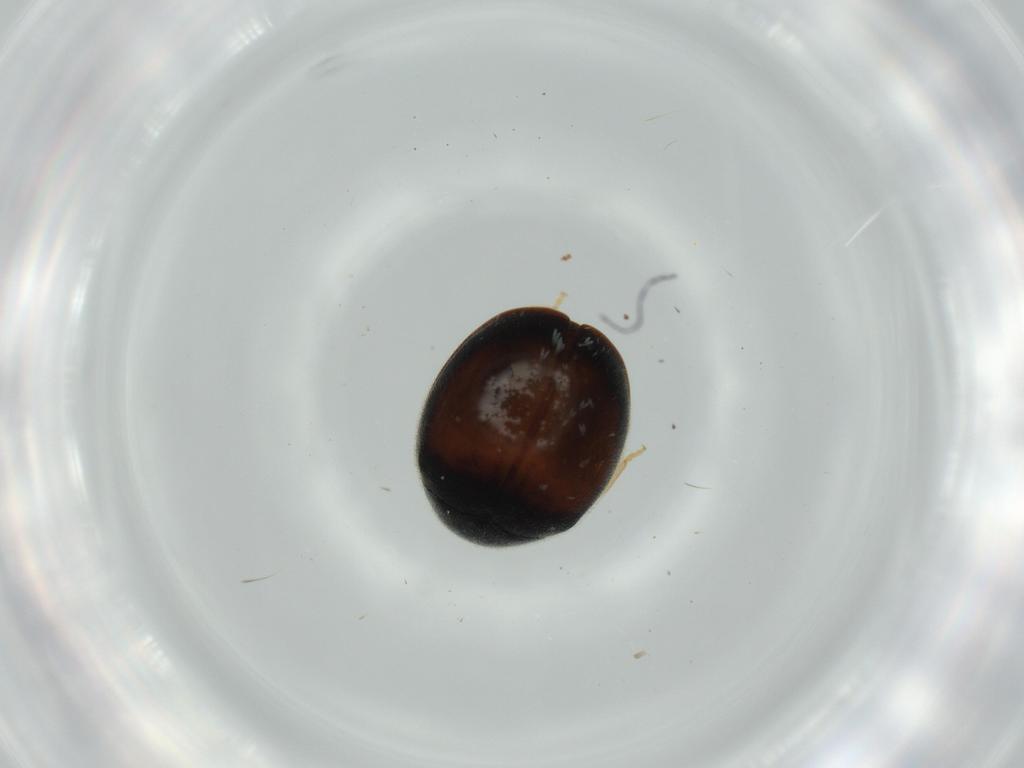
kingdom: Animalia
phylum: Arthropoda
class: Insecta
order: Coleoptera
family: Coccinellidae
